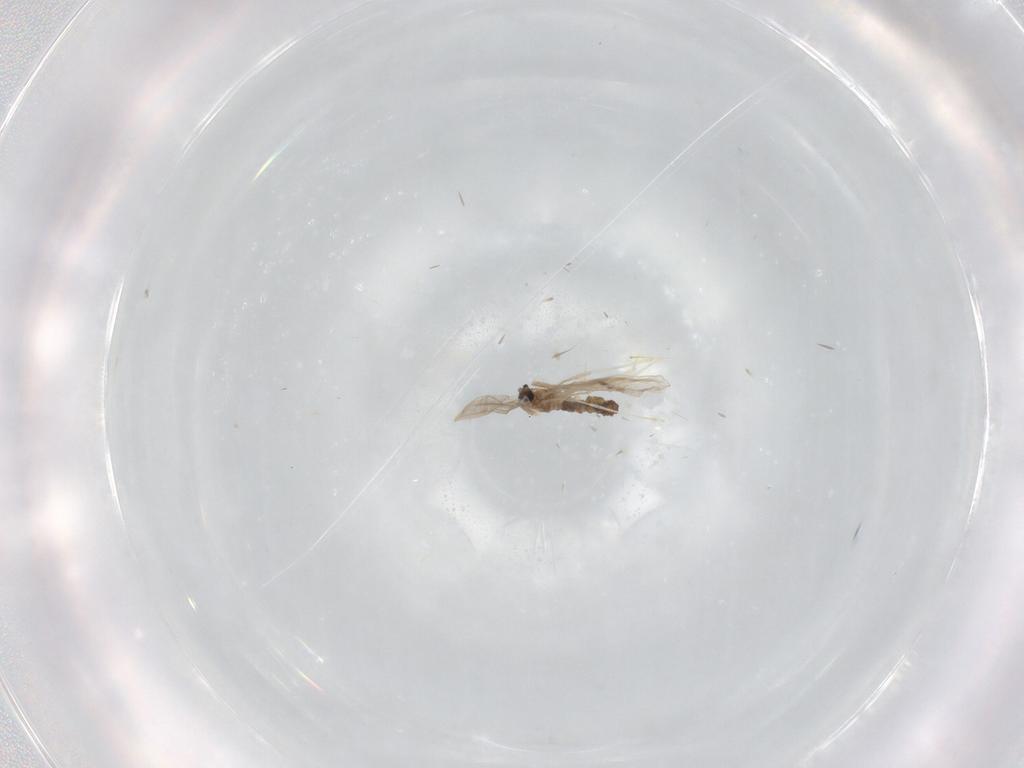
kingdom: Animalia
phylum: Arthropoda
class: Insecta
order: Diptera
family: Cecidomyiidae
